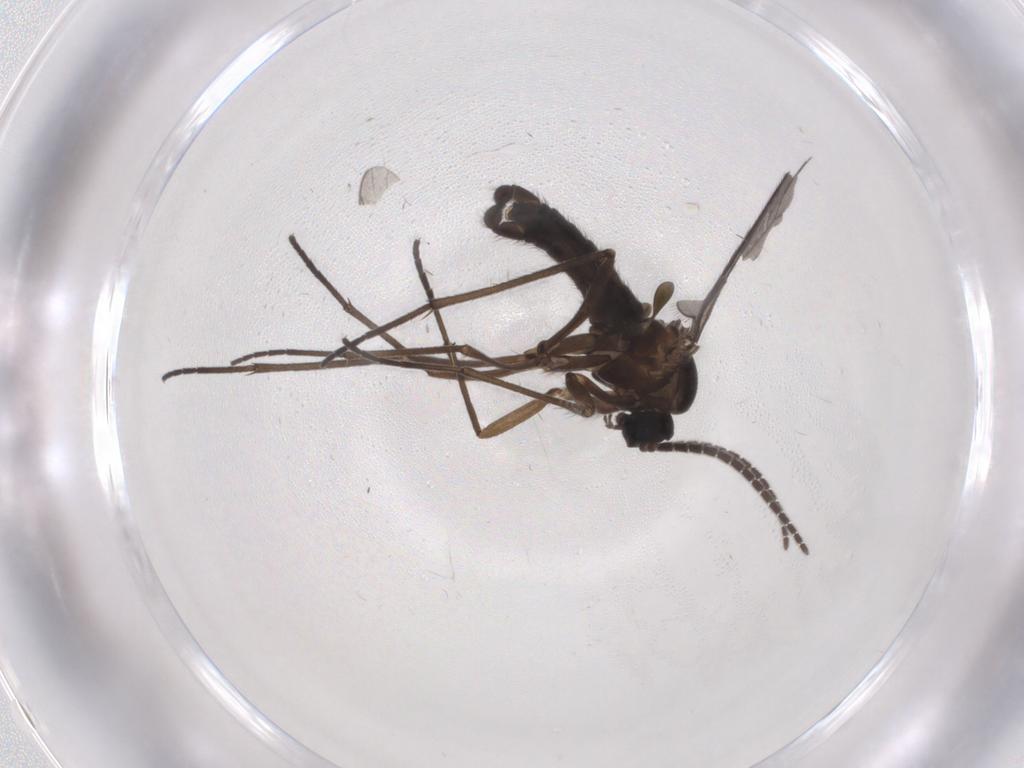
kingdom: Animalia
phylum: Arthropoda
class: Insecta
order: Diptera
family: Sciaridae
